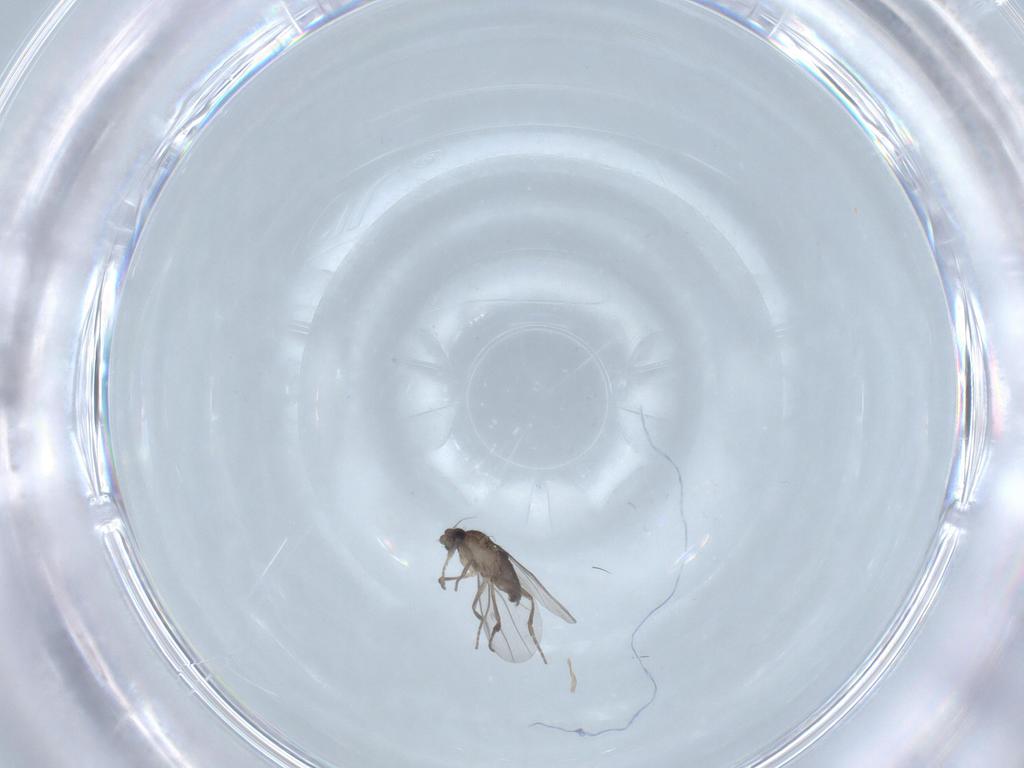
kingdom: Animalia
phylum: Arthropoda
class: Insecta
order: Diptera
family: Phoridae
